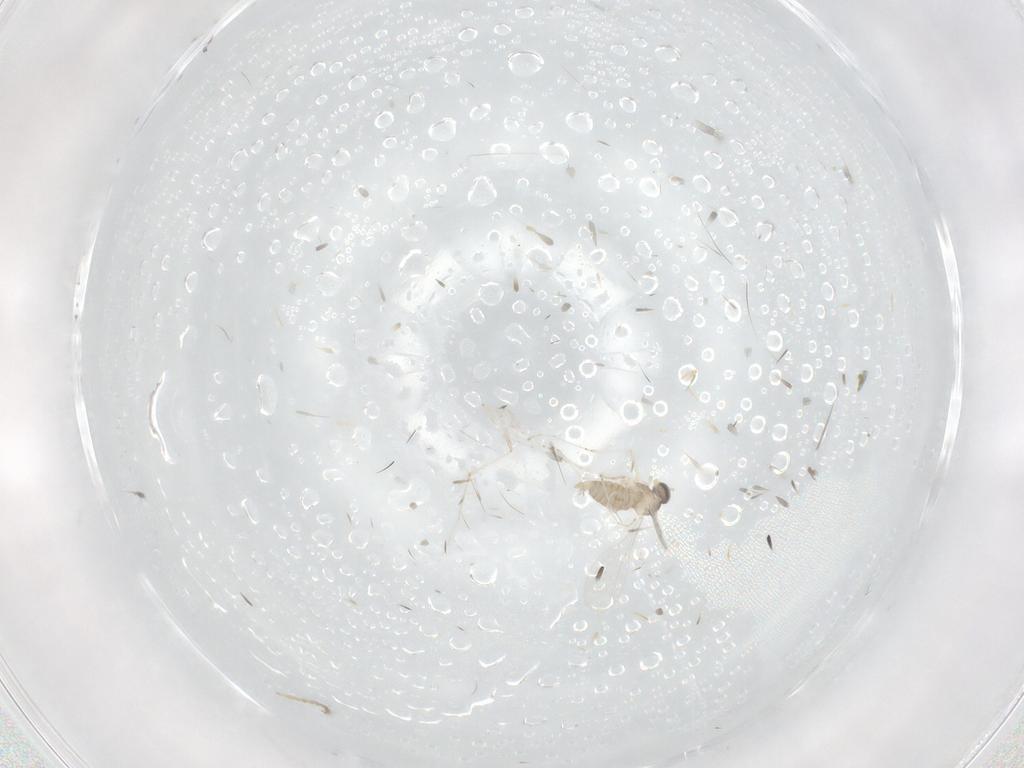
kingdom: Animalia
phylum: Arthropoda
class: Insecta
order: Diptera
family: Cecidomyiidae
